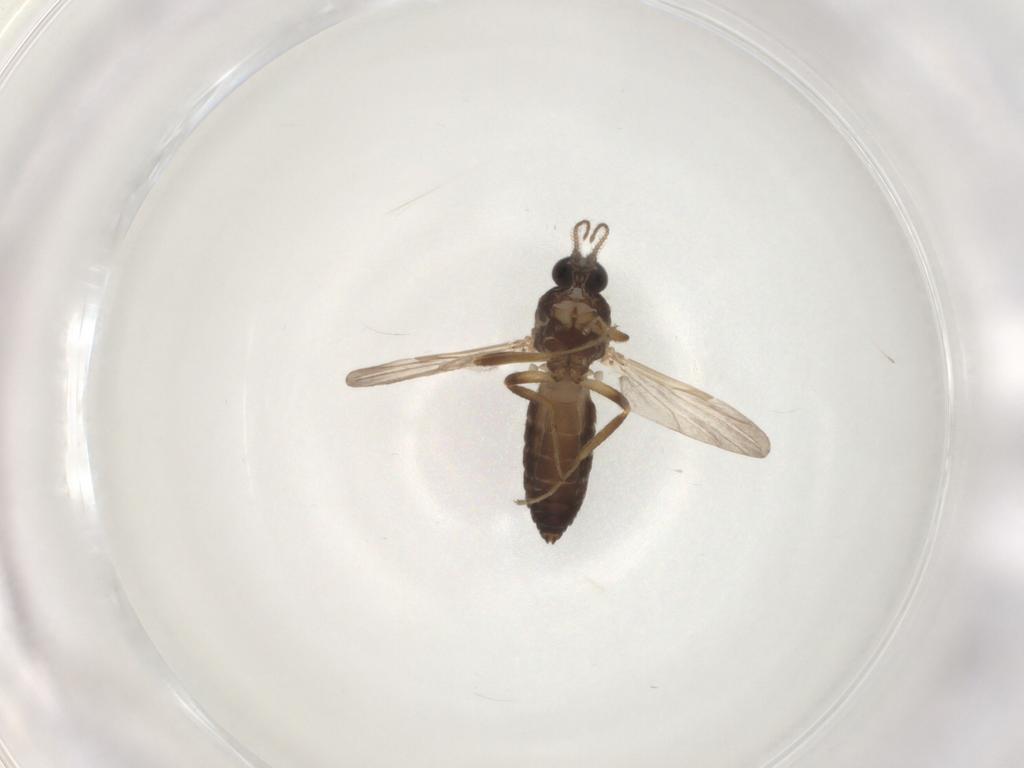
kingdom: Animalia
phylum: Arthropoda
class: Insecta
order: Diptera
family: Ceratopogonidae
